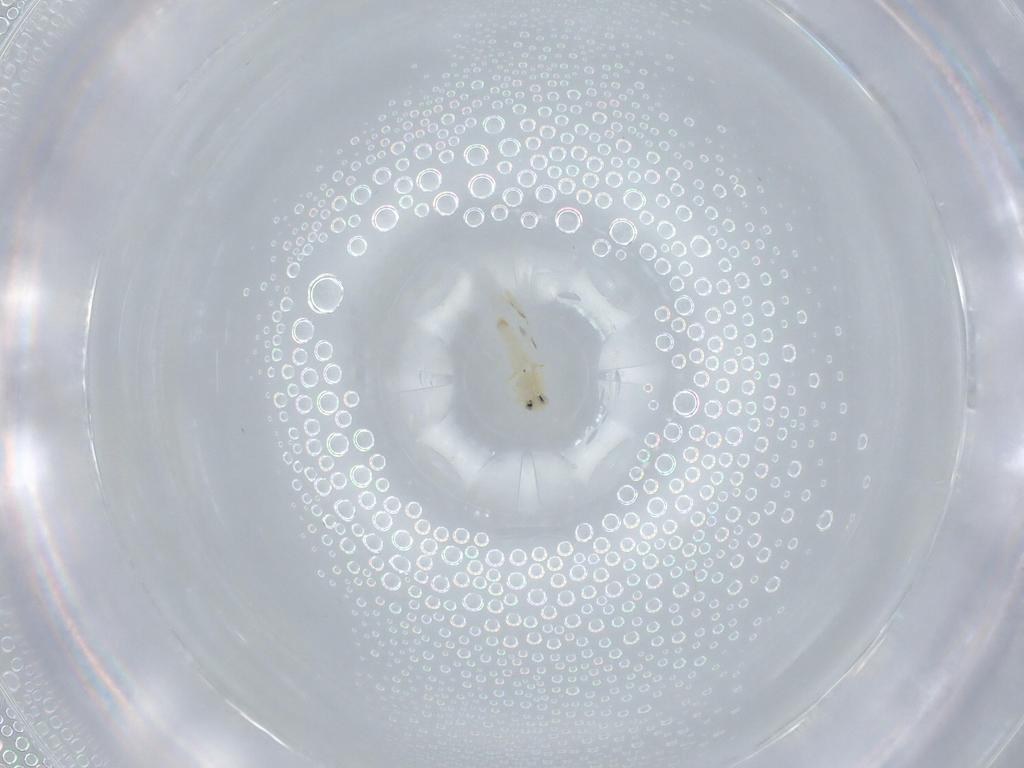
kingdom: Animalia
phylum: Arthropoda
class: Insecta
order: Hemiptera
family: Aleyrodidae
